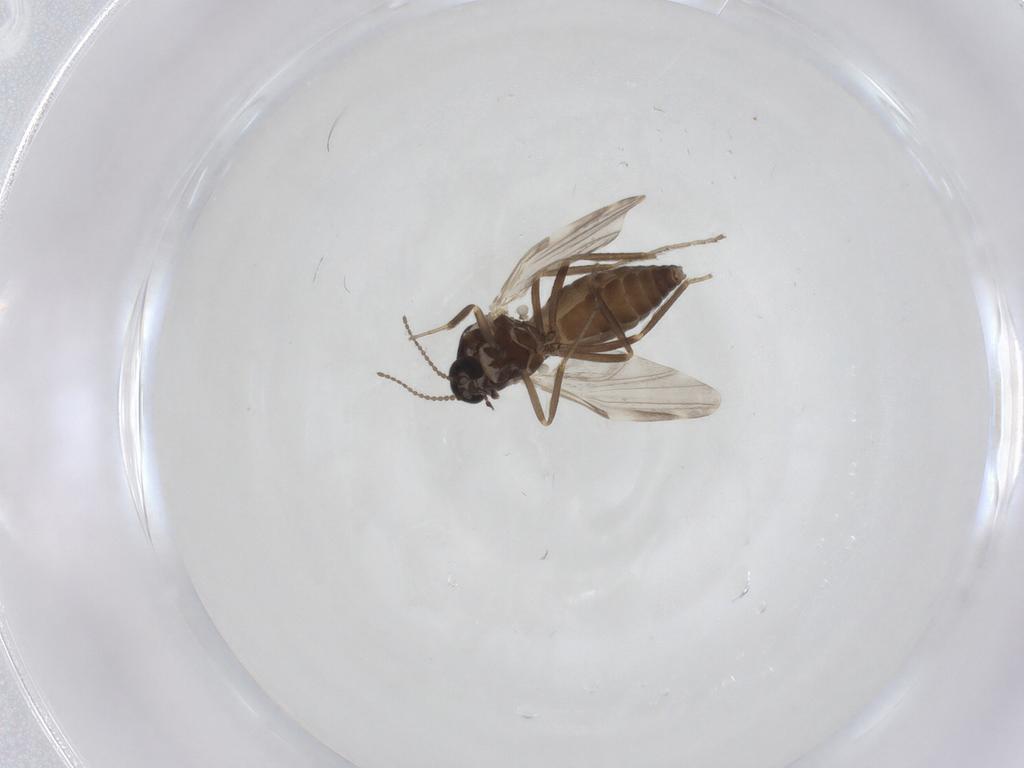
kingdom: Animalia
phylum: Arthropoda
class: Insecta
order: Diptera
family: Ceratopogonidae
